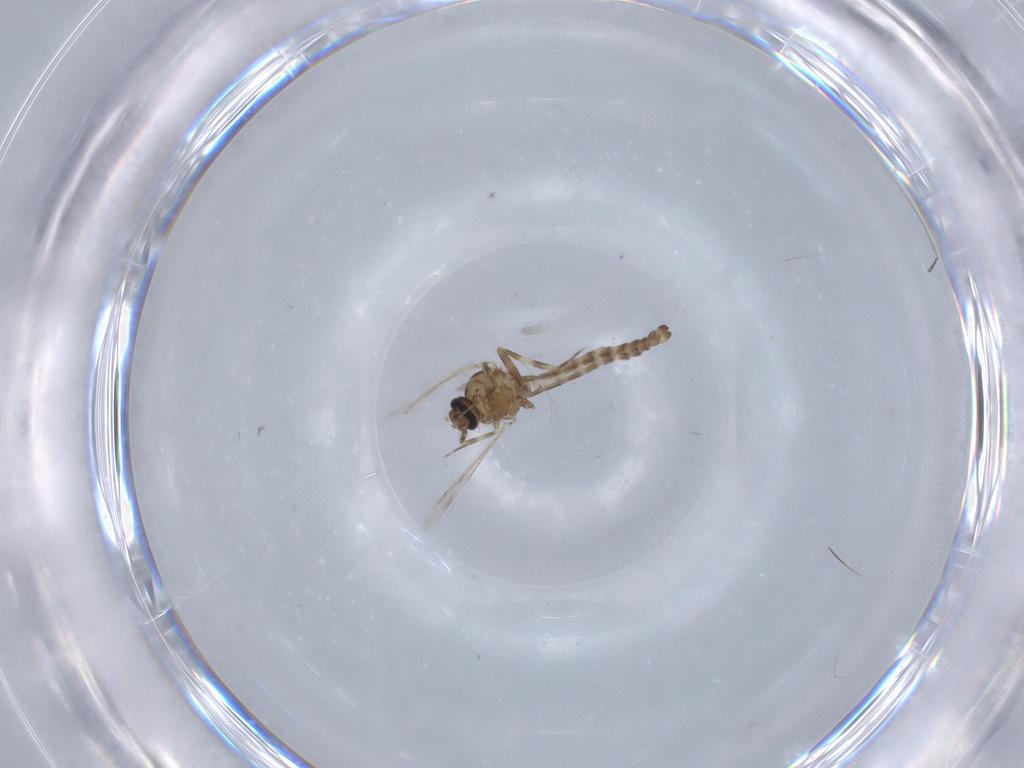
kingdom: Animalia
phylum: Arthropoda
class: Insecta
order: Diptera
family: Ceratopogonidae
